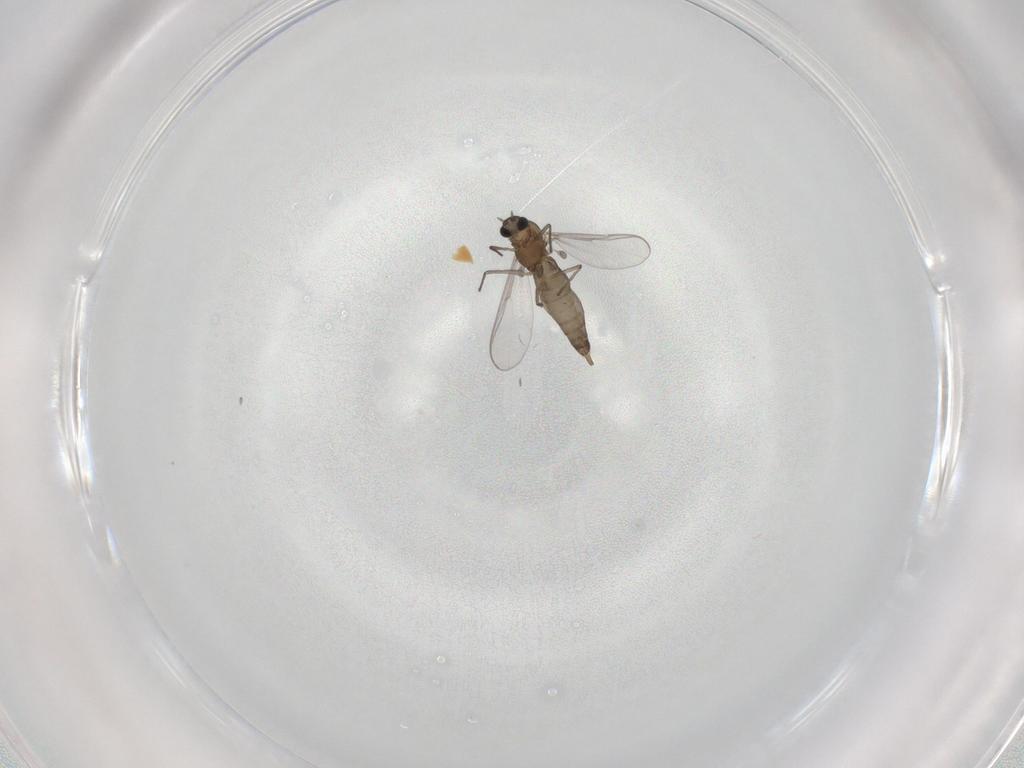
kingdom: Animalia
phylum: Arthropoda
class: Insecta
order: Diptera
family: Chironomidae
